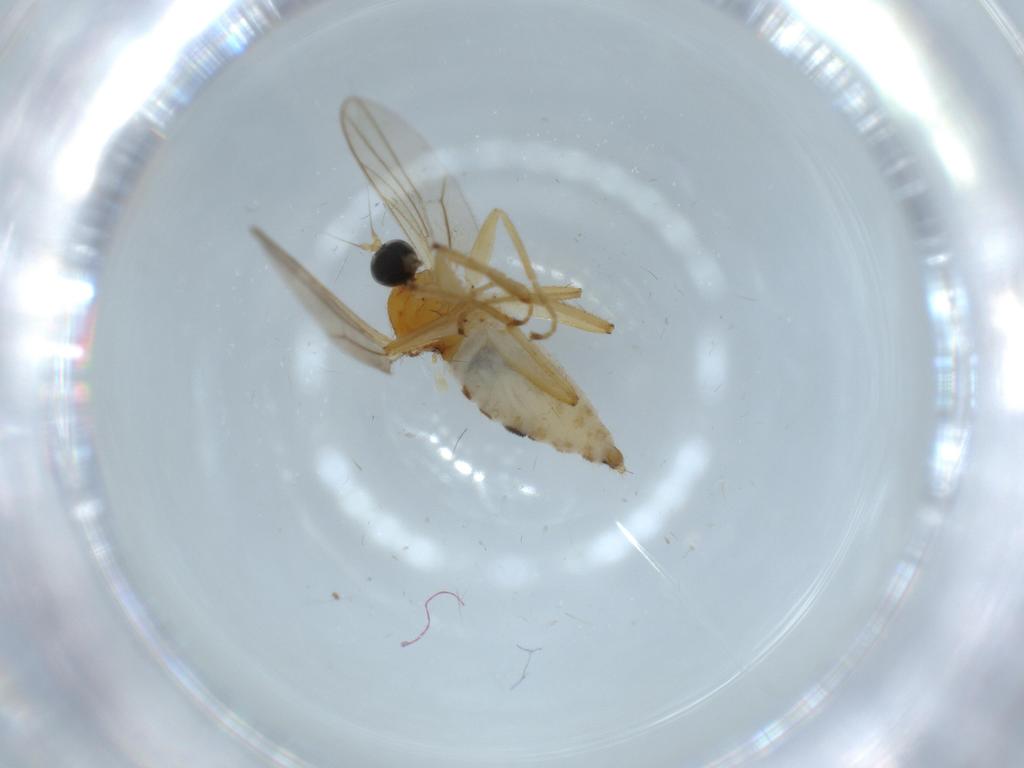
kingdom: Animalia
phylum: Arthropoda
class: Insecta
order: Diptera
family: Hybotidae
